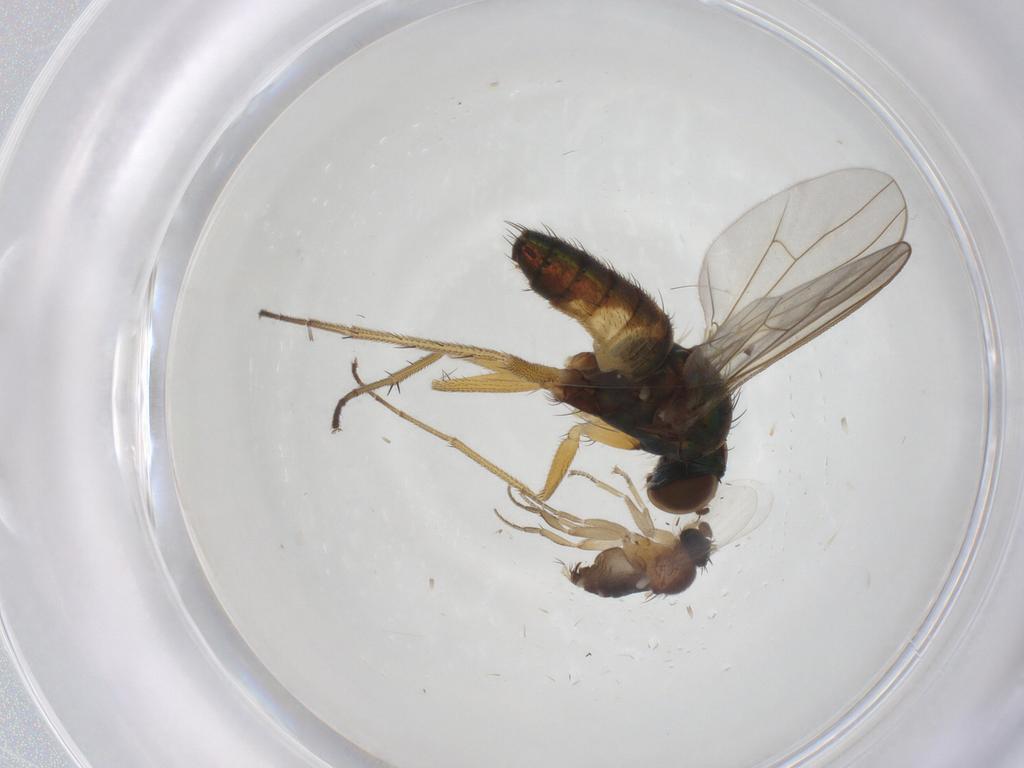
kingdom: Animalia
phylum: Arthropoda
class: Insecta
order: Diptera
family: Dolichopodidae
